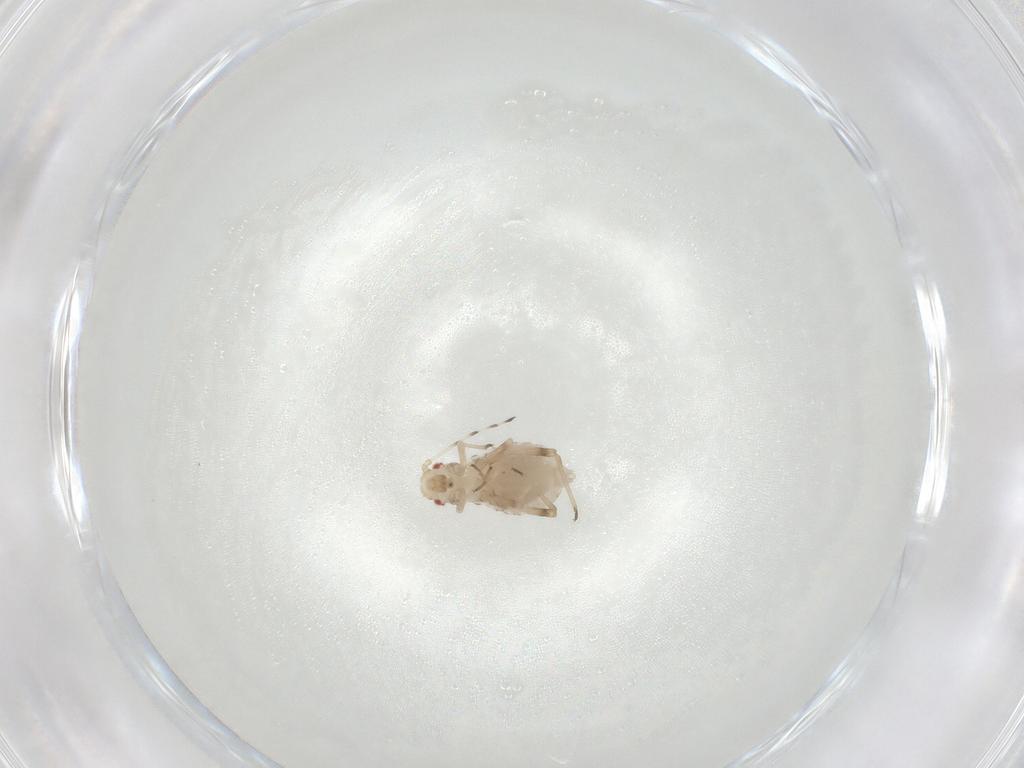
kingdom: Animalia
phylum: Arthropoda
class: Insecta
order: Hemiptera
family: Aphididae
